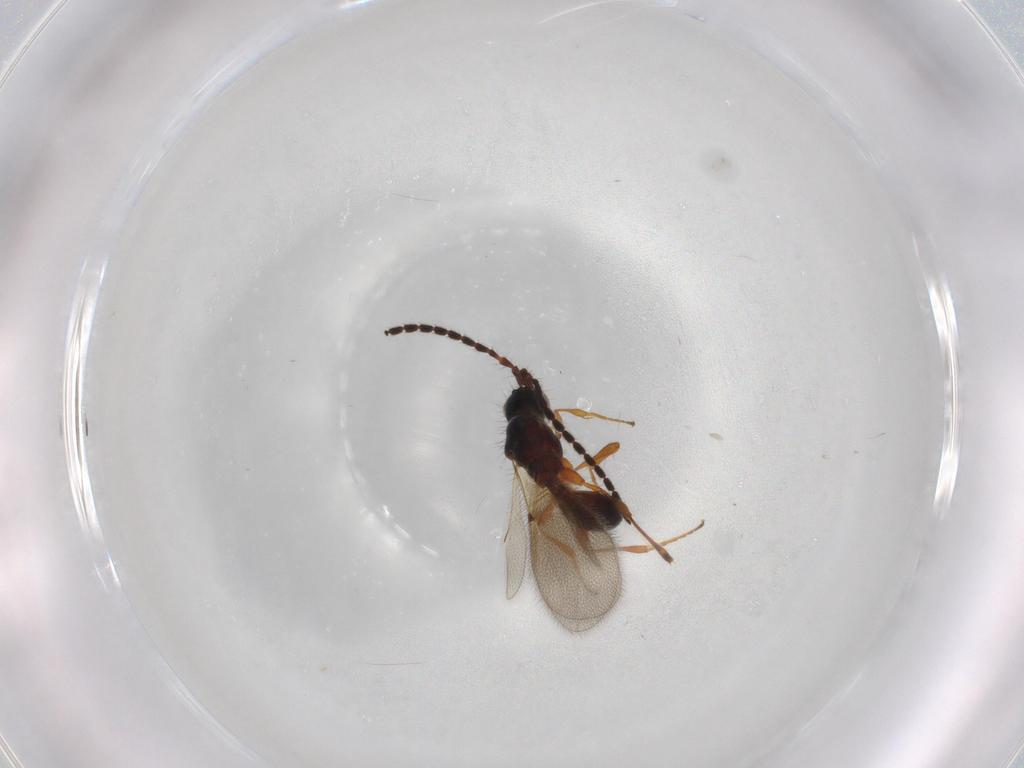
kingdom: Animalia
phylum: Arthropoda
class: Insecta
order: Hymenoptera
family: Diapriidae
